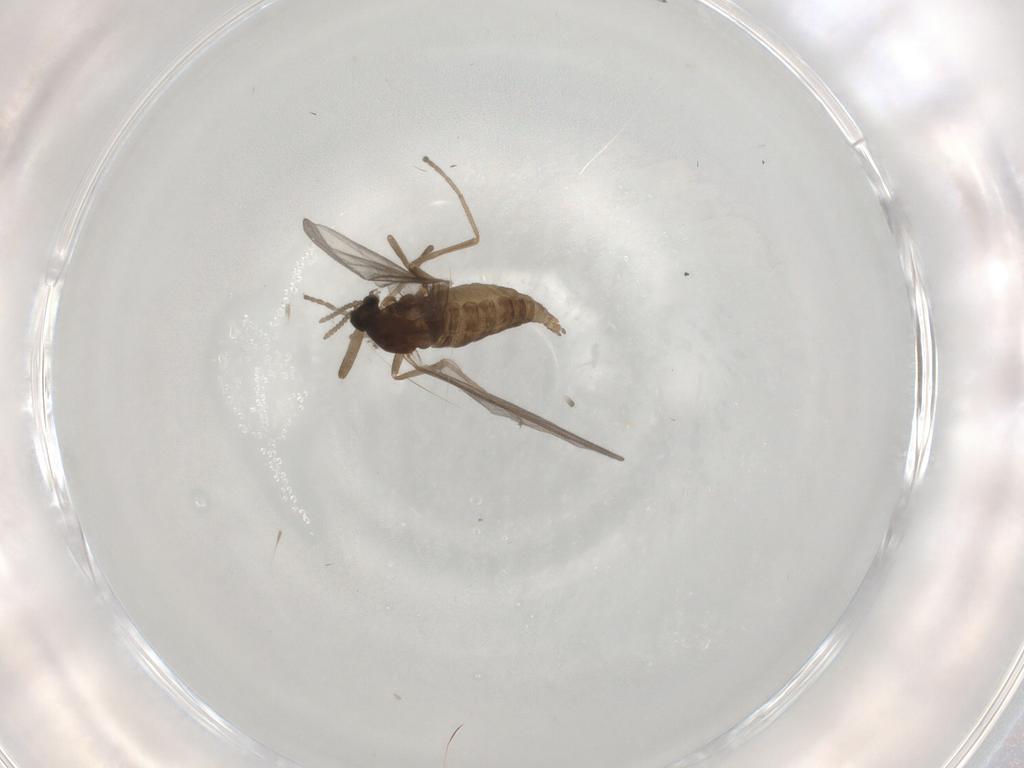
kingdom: Animalia
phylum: Arthropoda
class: Insecta
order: Diptera
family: Cecidomyiidae
